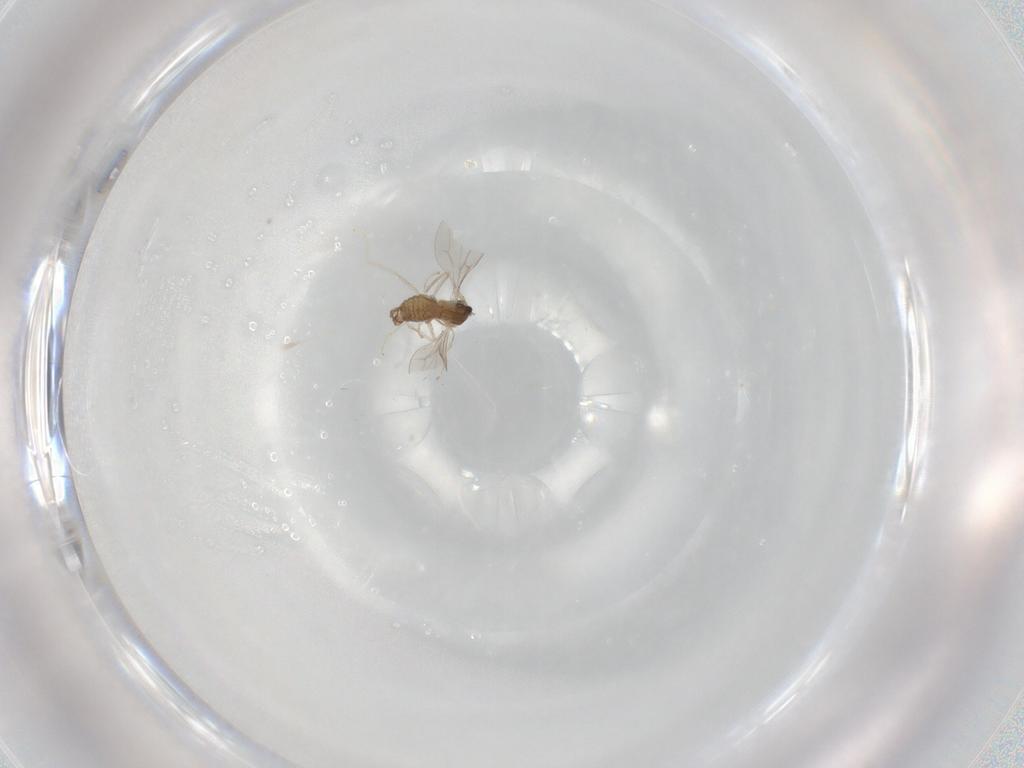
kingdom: Animalia
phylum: Arthropoda
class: Insecta
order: Diptera
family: Cecidomyiidae
